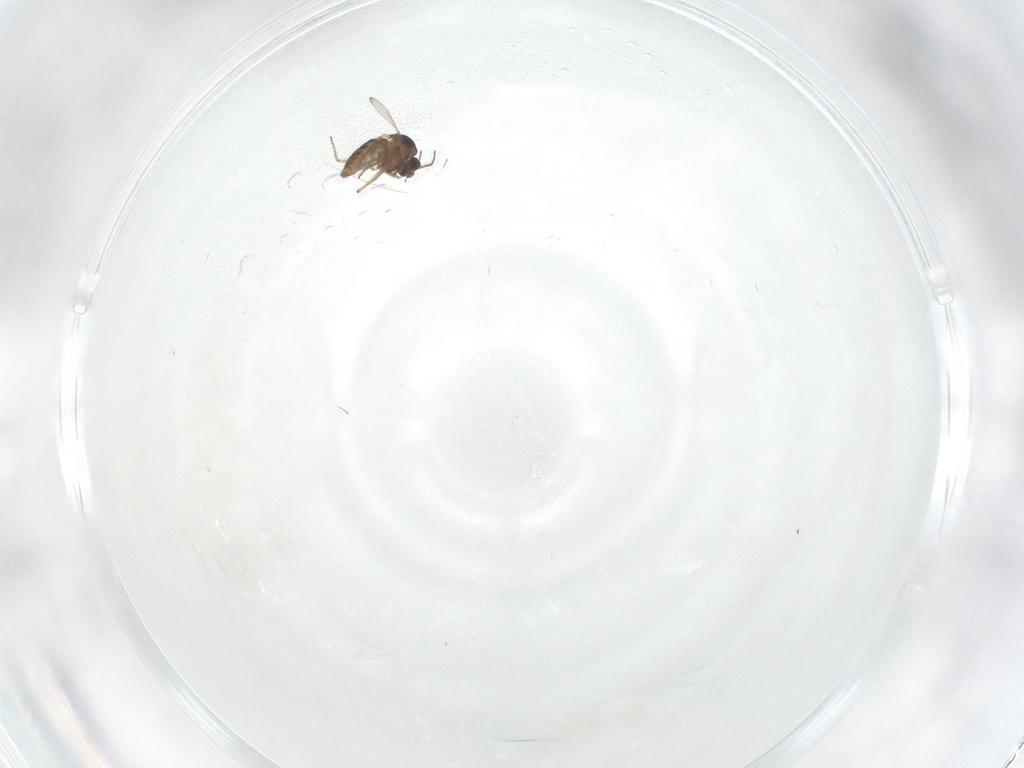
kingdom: Animalia
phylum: Arthropoda
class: Insecta
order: Diptera
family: Ceratopogonidae
